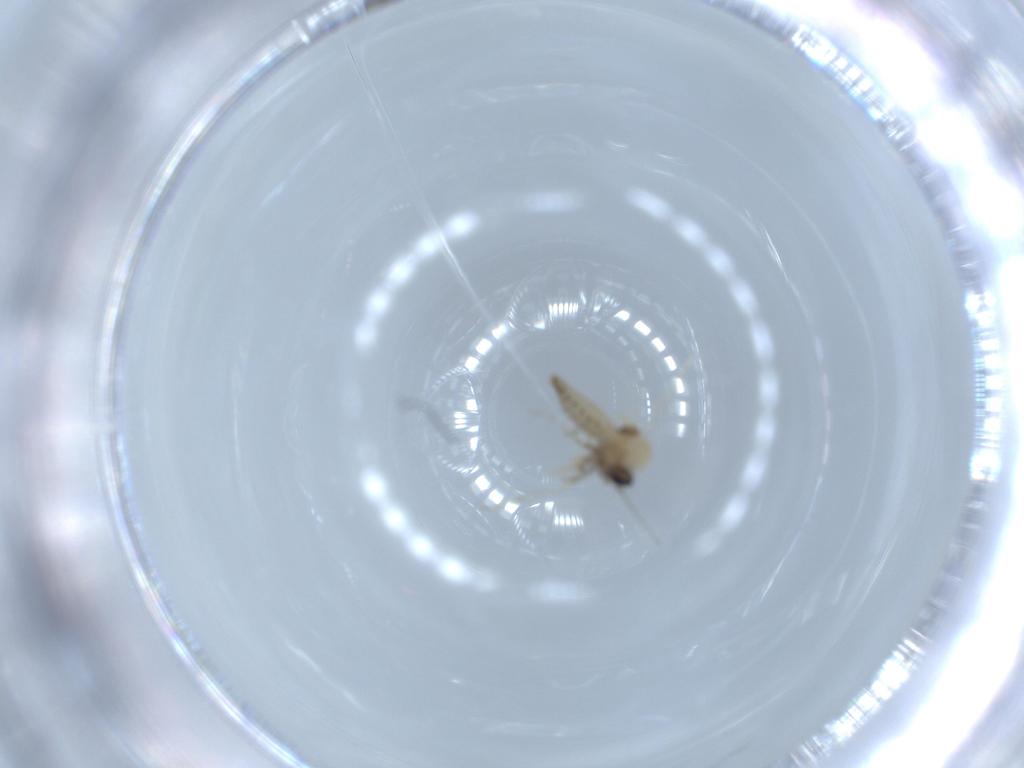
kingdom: Animalia
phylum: Arthropoda
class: Insecta
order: Diptera
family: Ceratopogonidae
